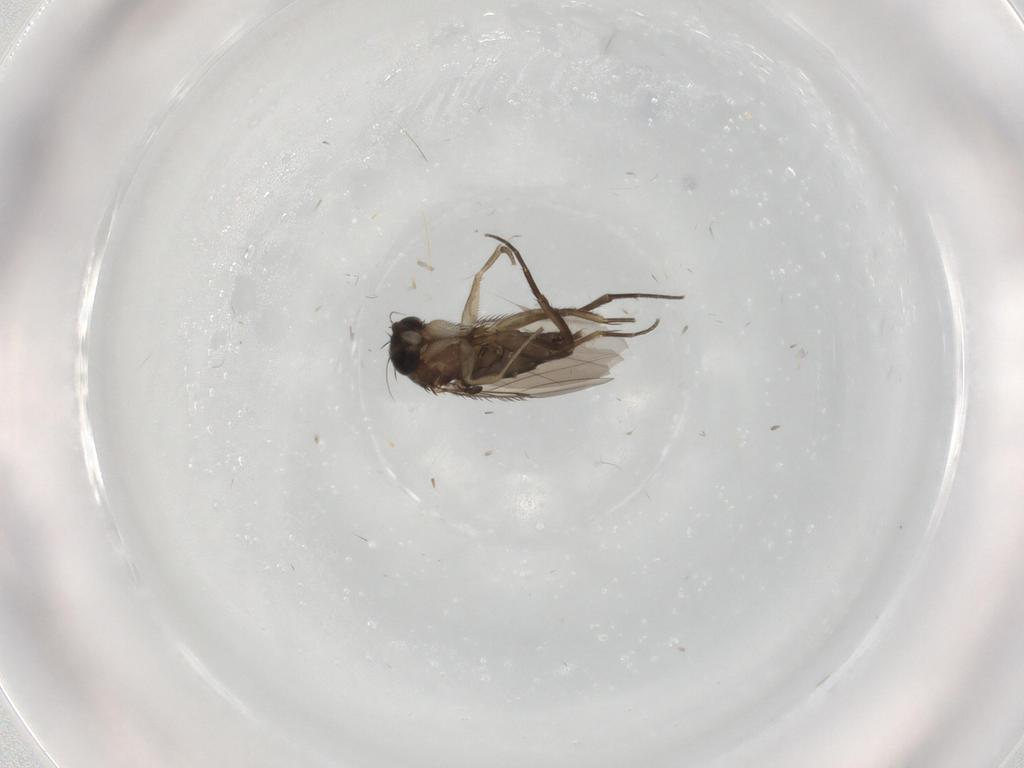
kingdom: Animalia
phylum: Arthropoda
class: Insecta
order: Diptera
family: Phoridae
